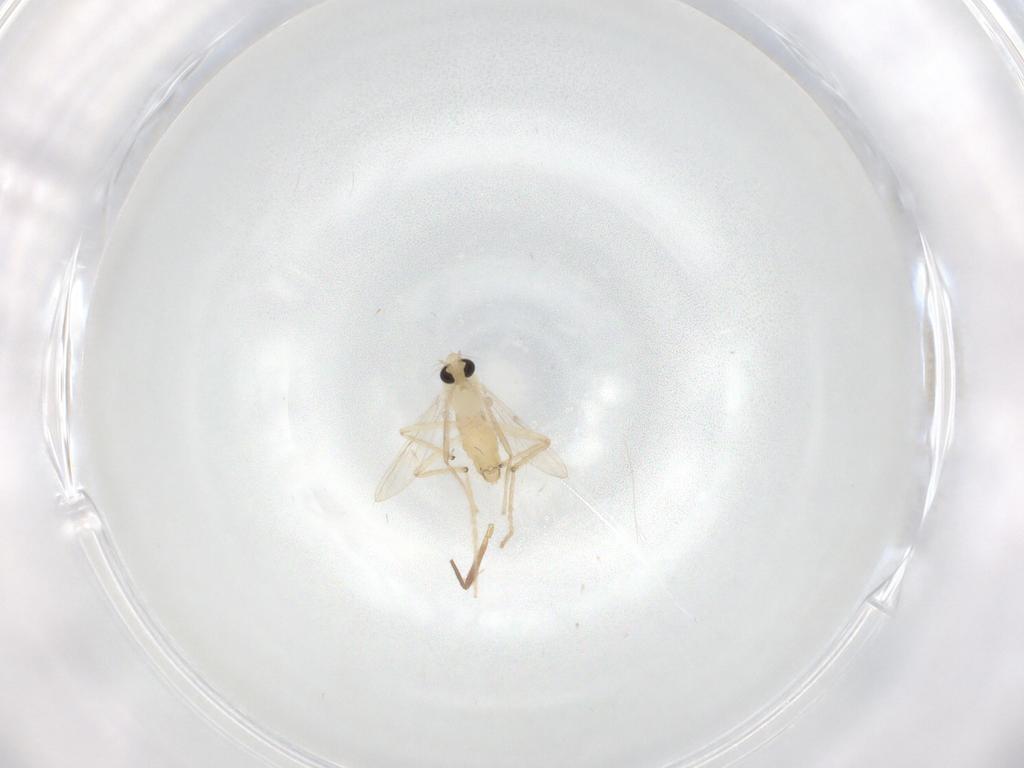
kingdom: Animalia
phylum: Arthropoda
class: Insecta
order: Diptera
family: Chironomidae
